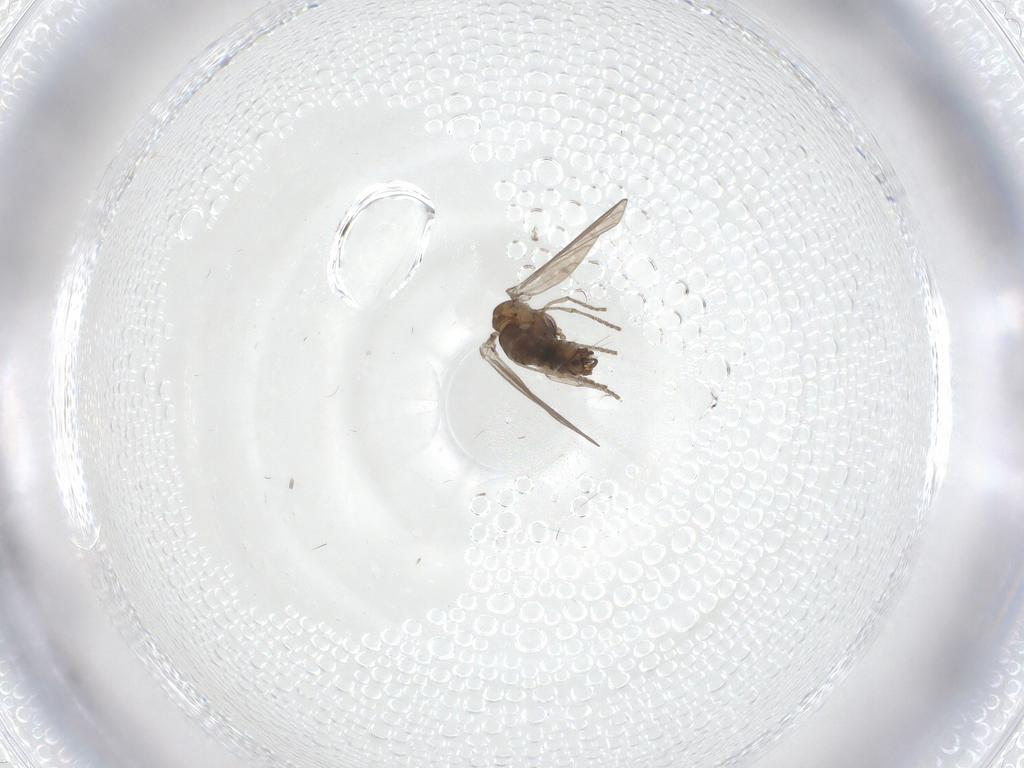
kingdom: Animalia
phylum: Arthropoda
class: Insecta
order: Diptera
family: Psychodidae
